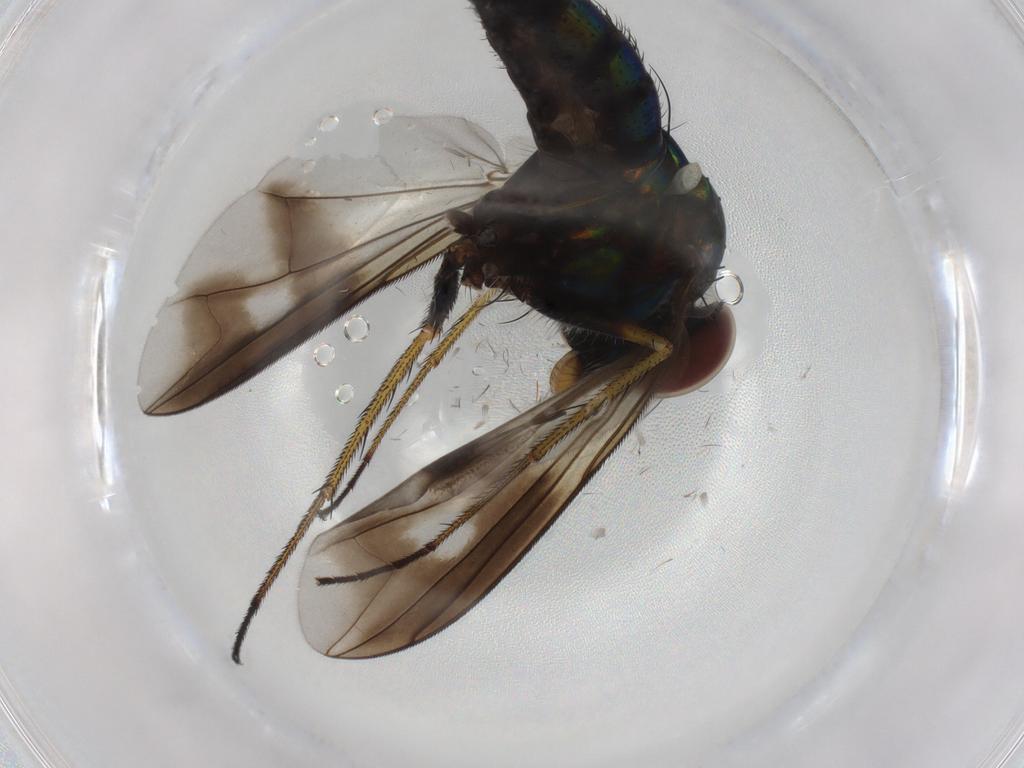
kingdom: Animalia
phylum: Arthropoda
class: Insecta
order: Diptera
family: Dolichopodidae
